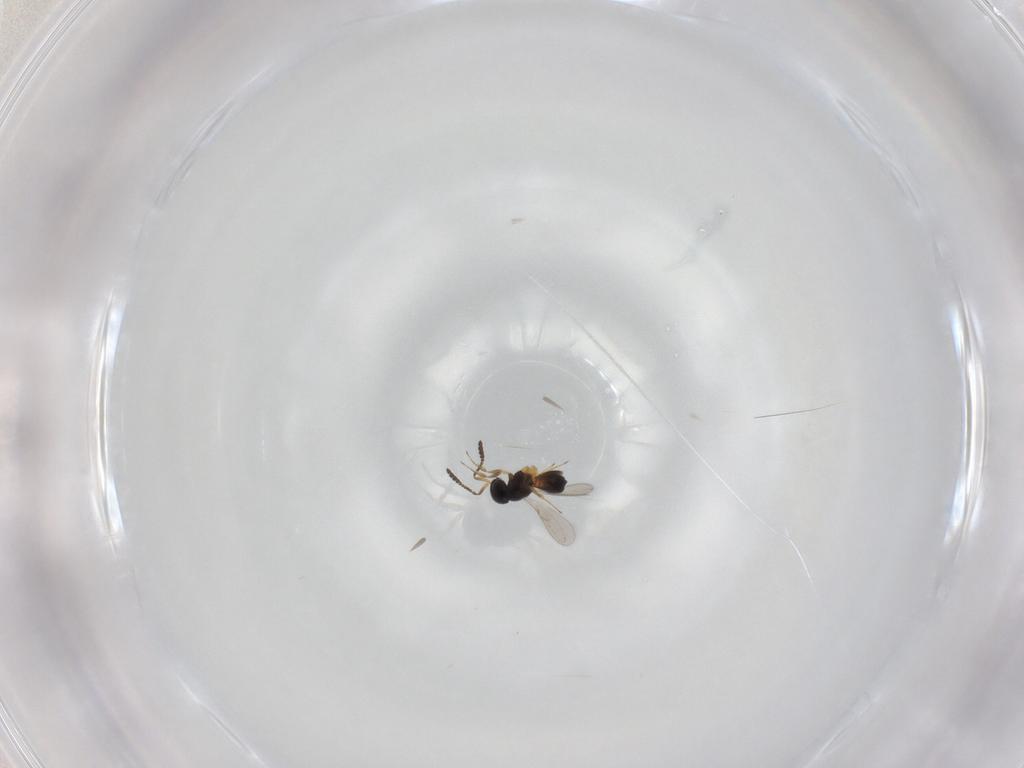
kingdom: Animalia
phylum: Arthropoda
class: Insecta
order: Hymenoptera
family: Scelionidae
